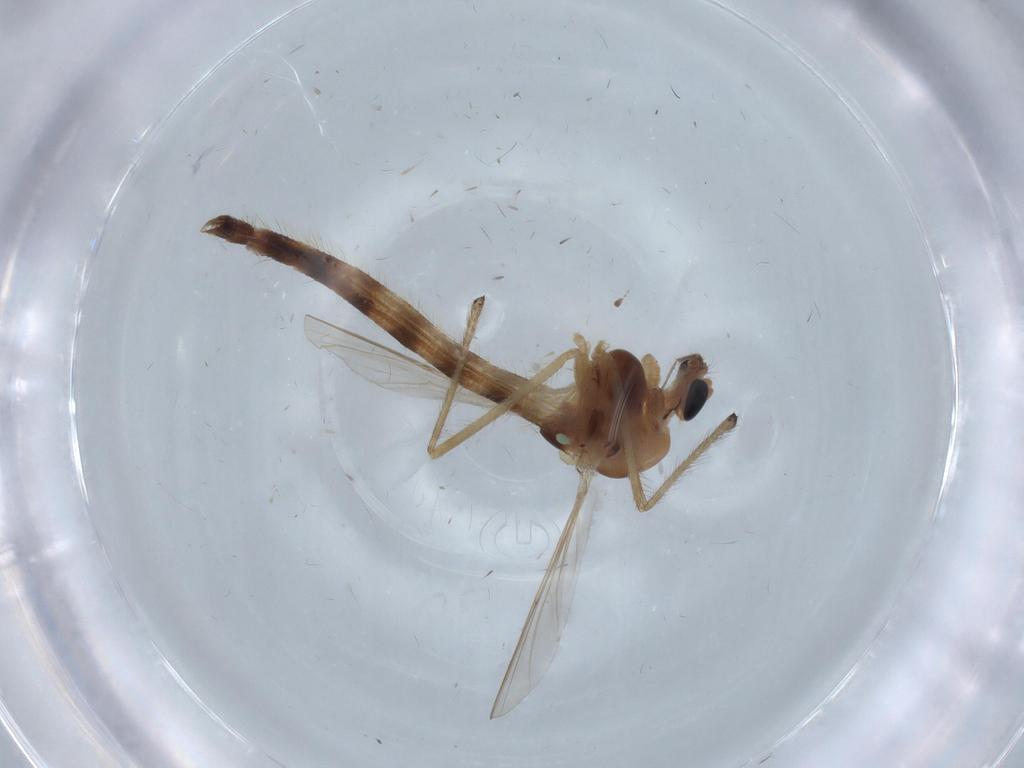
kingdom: Animalia
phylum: Arthropoda
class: Insecta
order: Diptera
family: Chironomidae
